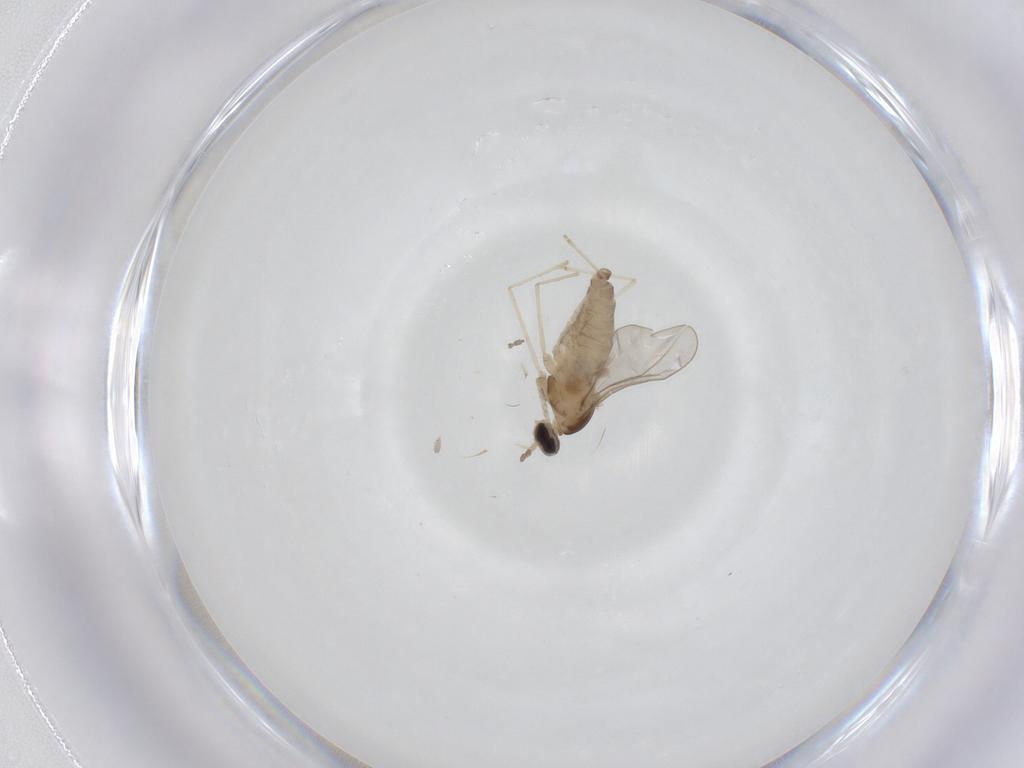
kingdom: Animalia
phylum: Arthropoda
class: Insecta
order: Diptera
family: Cecidomyiidae
